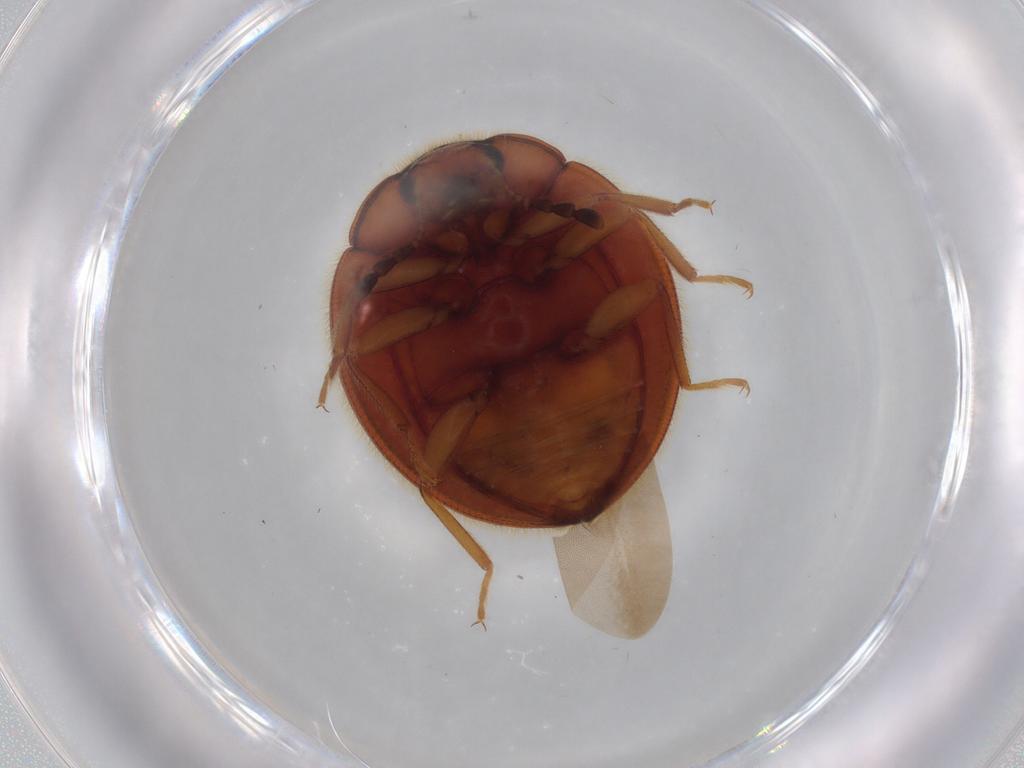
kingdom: Animalia
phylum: Arthropoda
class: Insecta
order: Coleoptera
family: Anamorphidae
